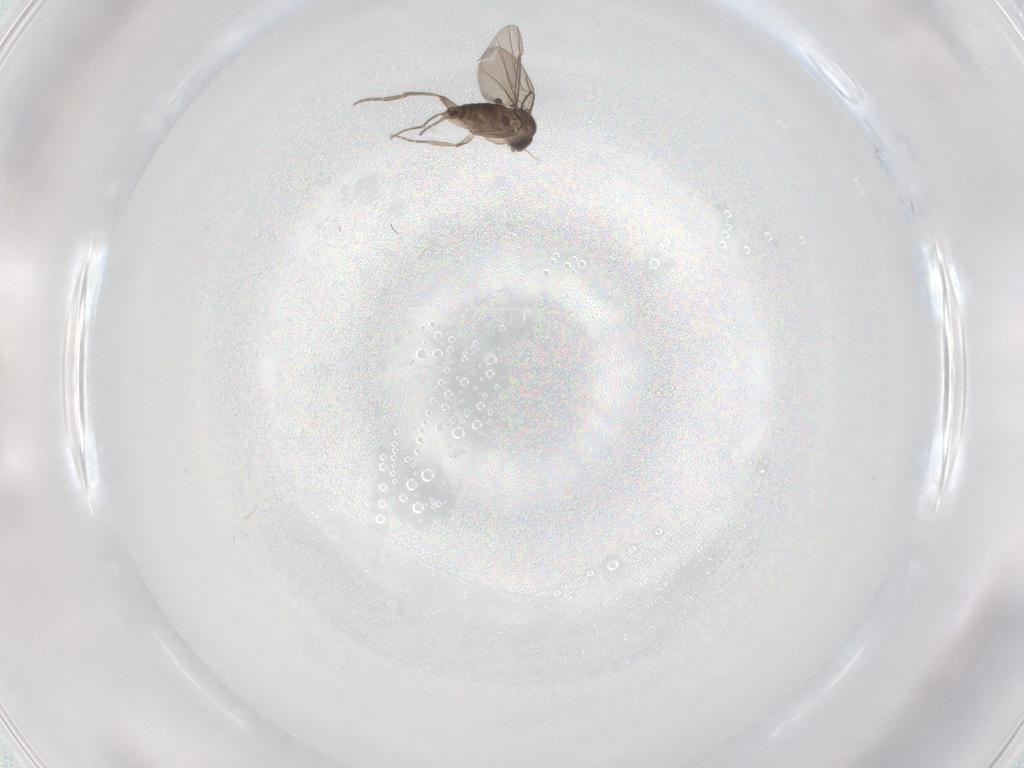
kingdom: Animalia
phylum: Arthropoda
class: Insecta
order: Diptera
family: Phoridae
